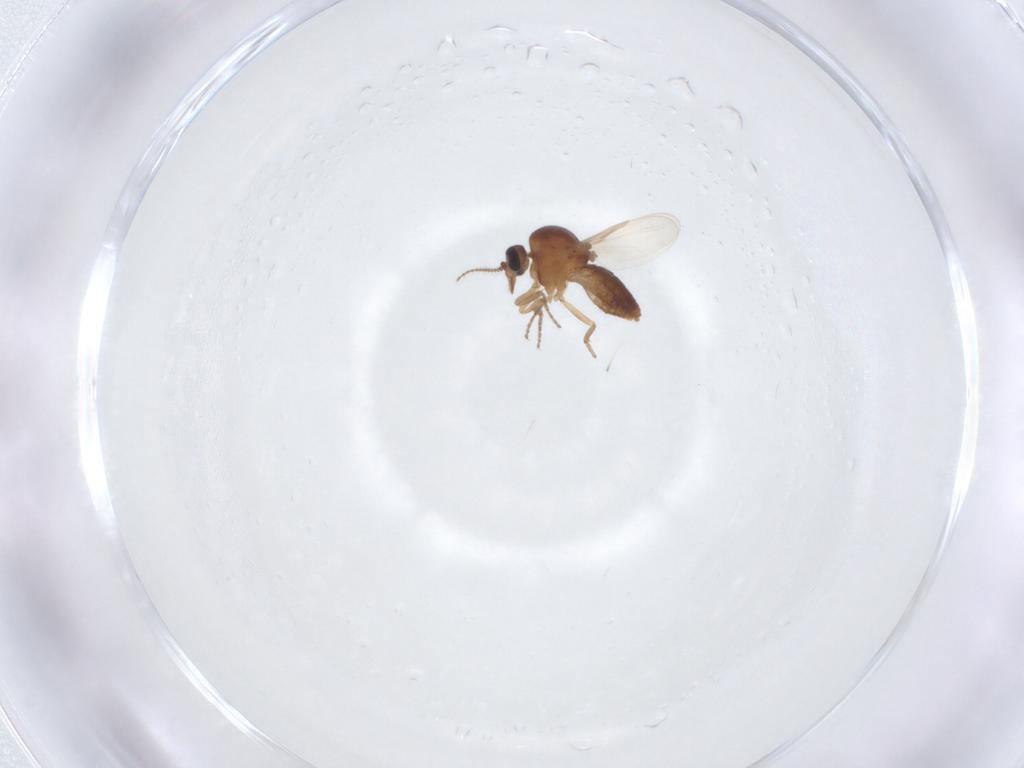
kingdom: Animalia
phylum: Arthropoda
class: Insecta
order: Diptera
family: Ceratopogonidae
